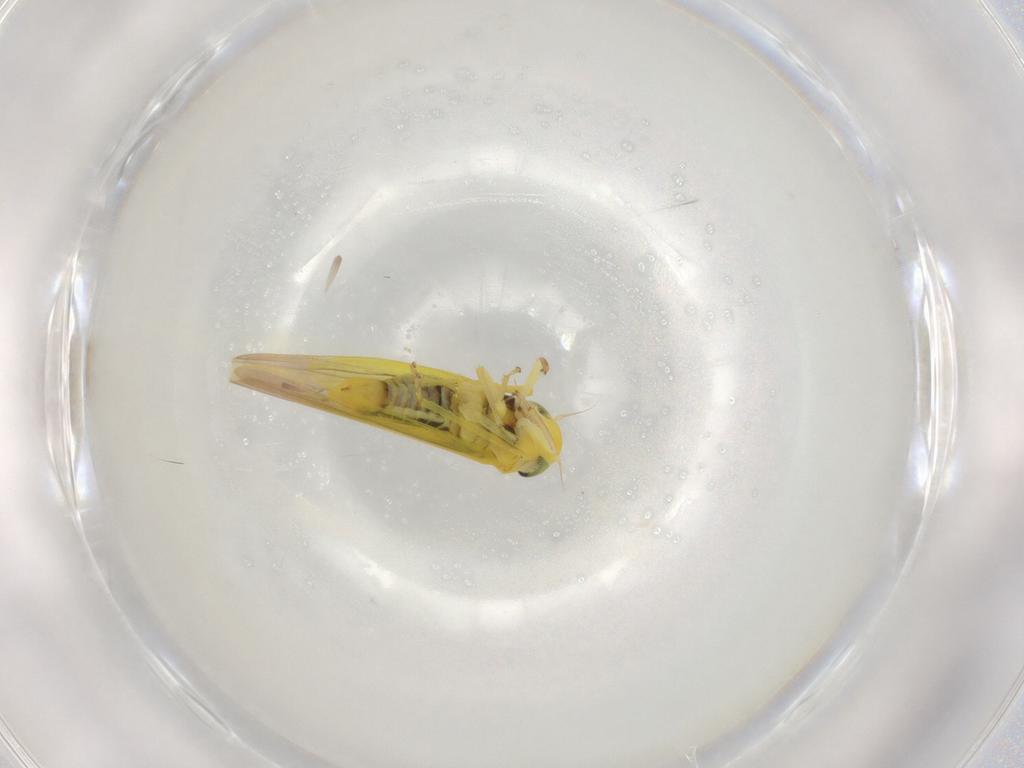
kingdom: Animalia
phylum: Arthropoda
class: Insecta
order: Hemiptera
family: Cicadellidae
